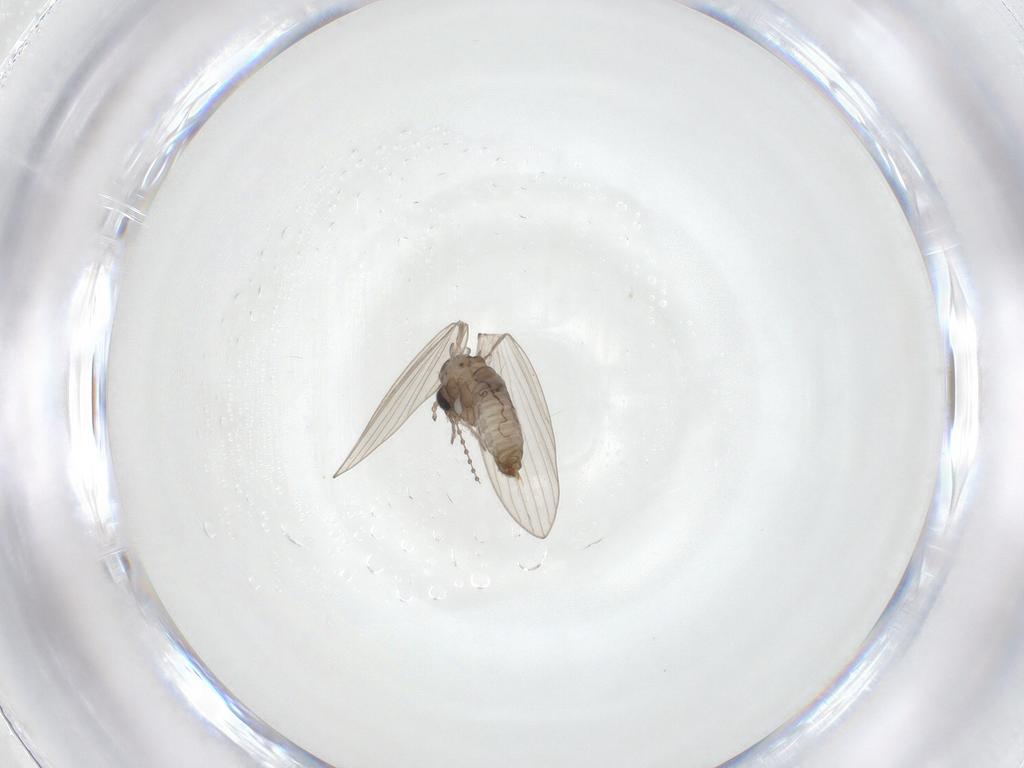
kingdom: Animalia
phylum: Arthropoda
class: Insecta
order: Diptera
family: Psychodidae
